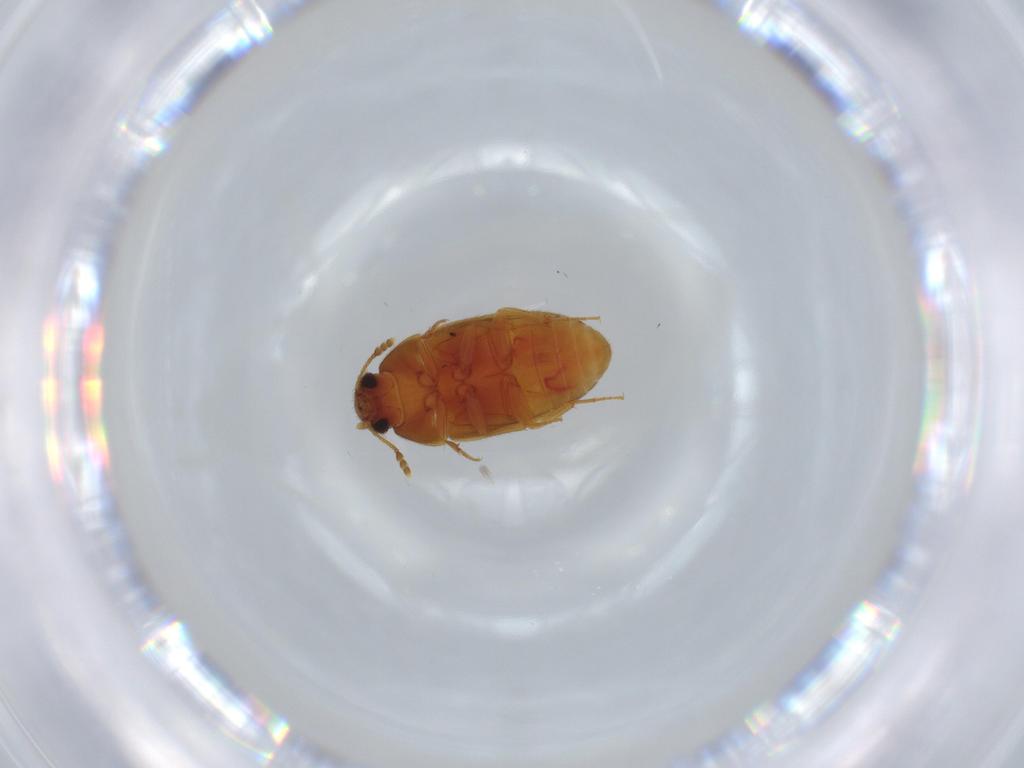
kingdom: Animalia
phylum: Arthropoda
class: Insecta
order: Coleoptera
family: Mycetophagidae
